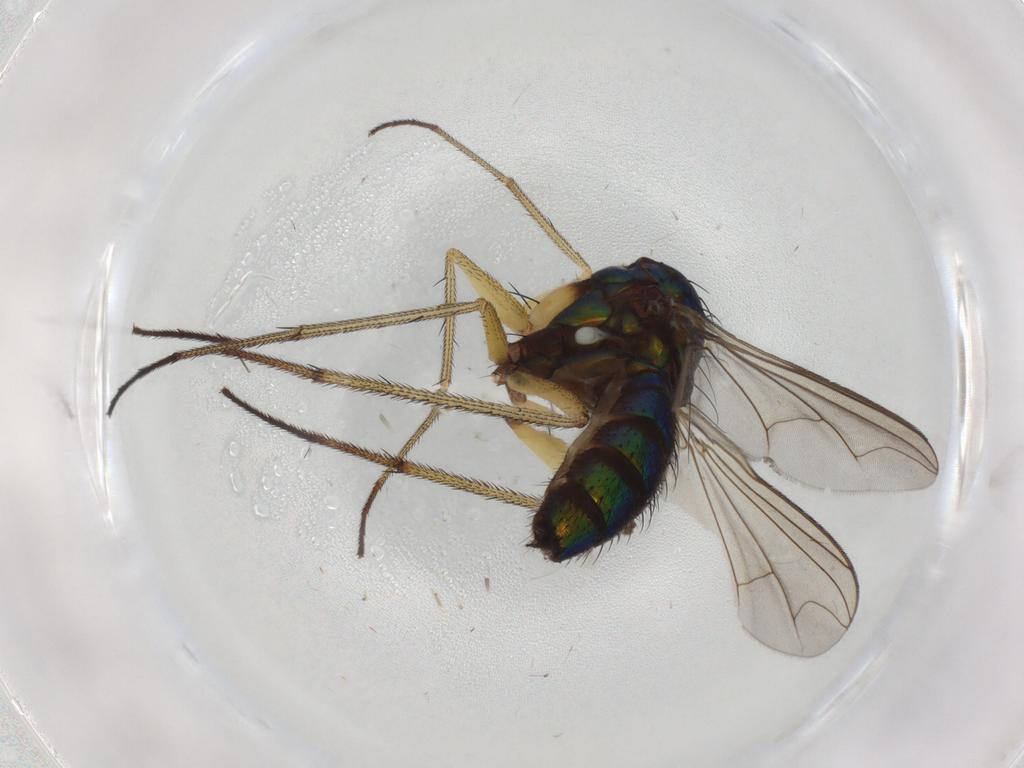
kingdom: Animalia
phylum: Arthropoda
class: Insecta
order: Diptera
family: Dolichopodidae
